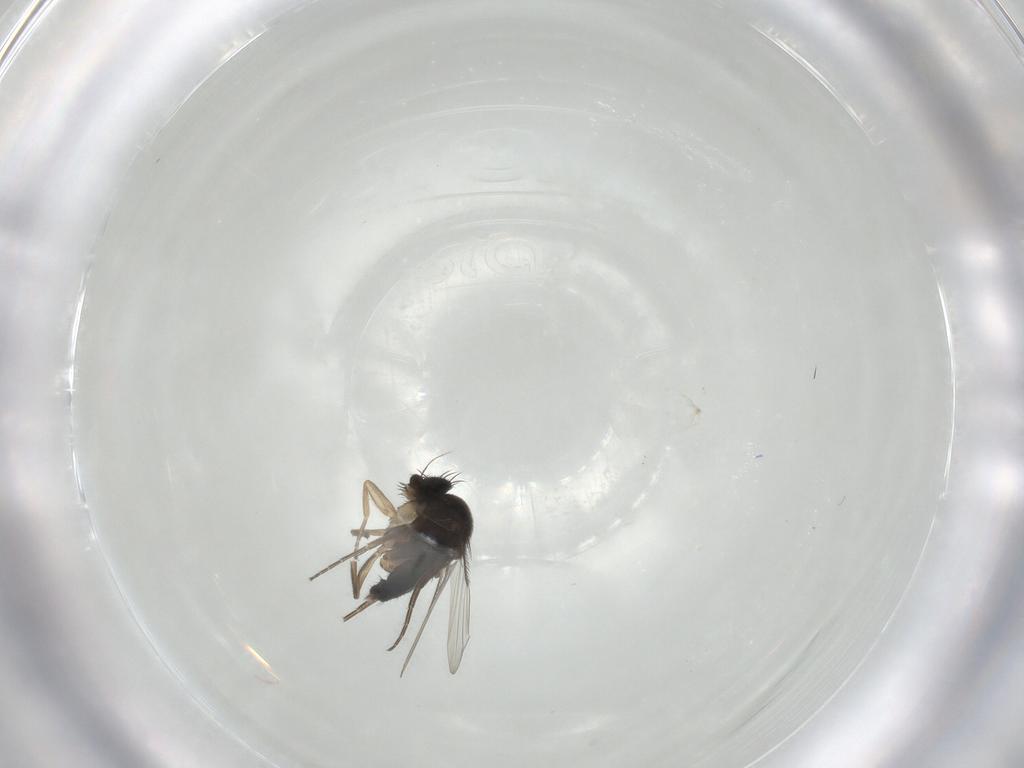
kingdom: Animalia
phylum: Arthropoda
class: Insecta
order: Diptera
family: Phoridae
